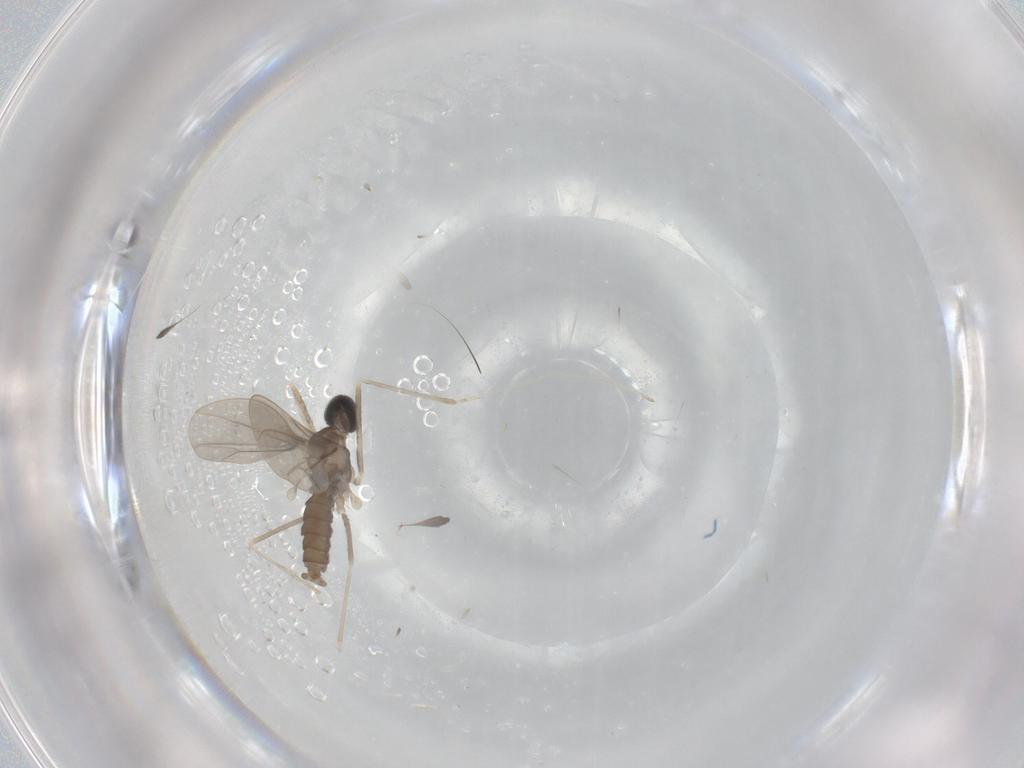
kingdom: Animalia
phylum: Arthropoda
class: Insecta
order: Diptera
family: Cecidomyiidae
